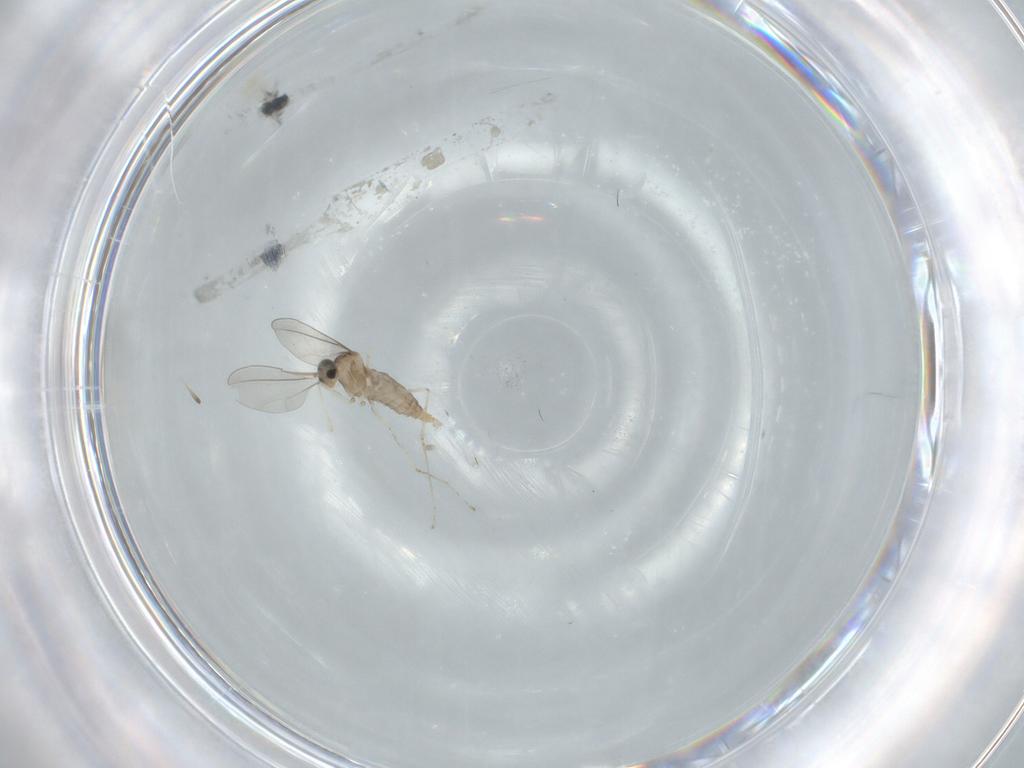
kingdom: Animalia
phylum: Arthropoda
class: Insecta
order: Diptera
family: Cecidomyiidae
